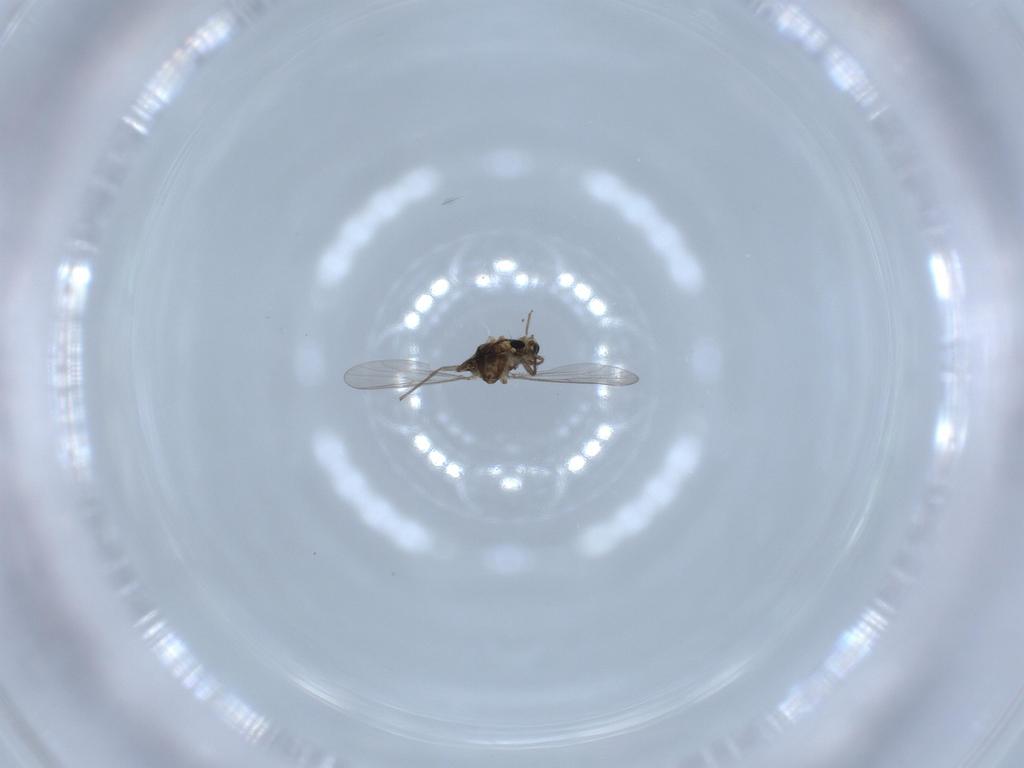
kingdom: Animalia
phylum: Arthropoda
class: Insecta
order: Diptera
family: Chironomidae
